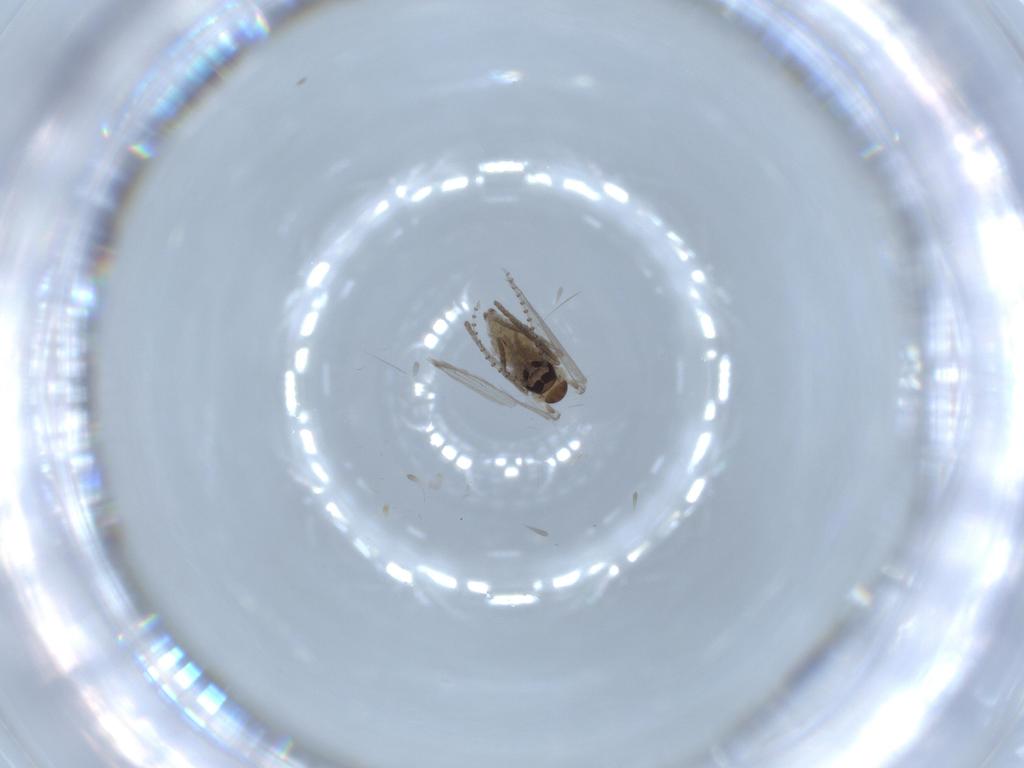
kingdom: Animalia
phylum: Arthropoda
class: Insecta
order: Diptera
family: Psychodidae
